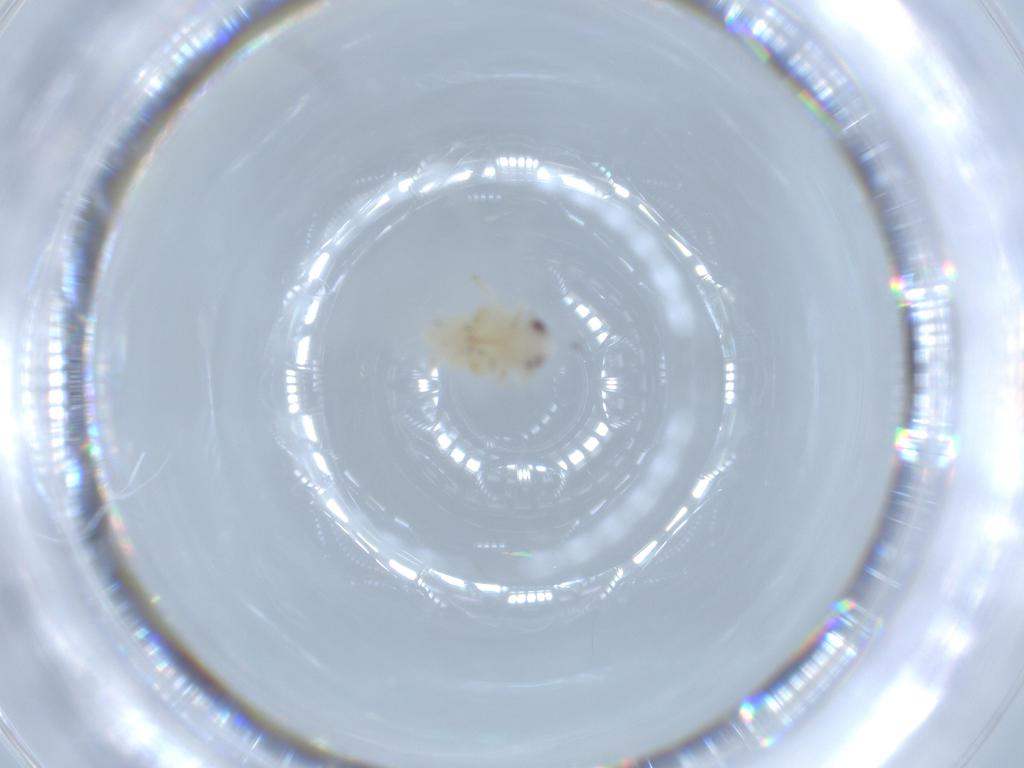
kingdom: Animalia
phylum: Arthropoda
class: Insecta
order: Hemiptera
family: Nogodinidae
